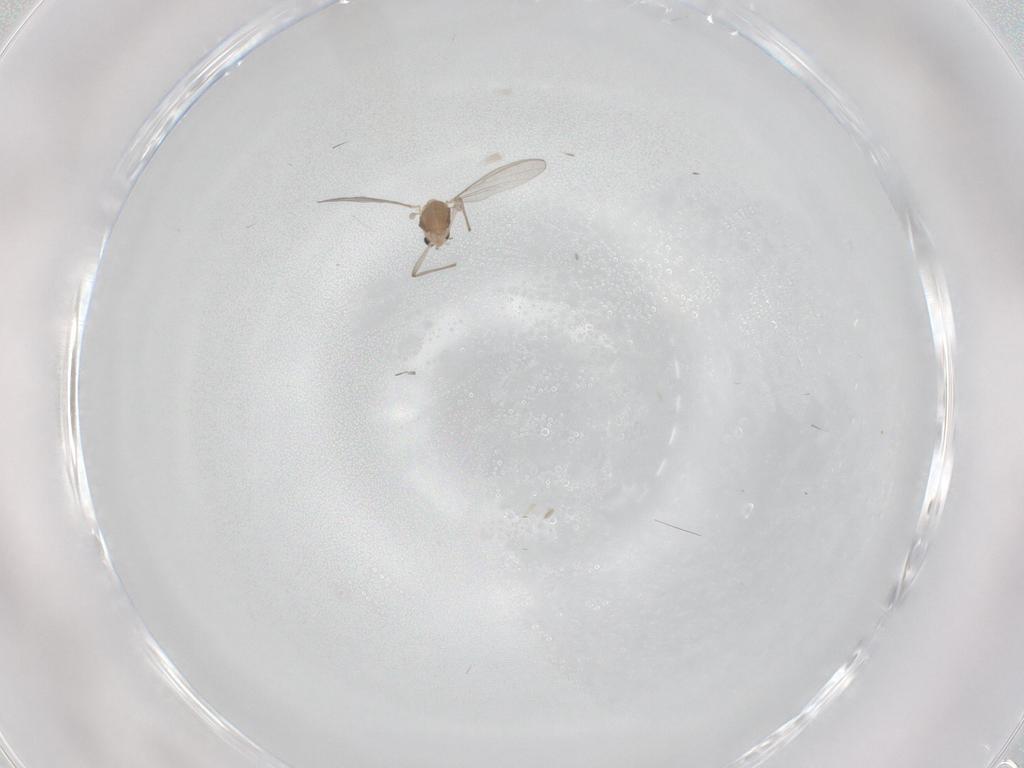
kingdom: Animalia
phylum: Arthropoda
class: Insecta
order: Diptera
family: Chironomidae
